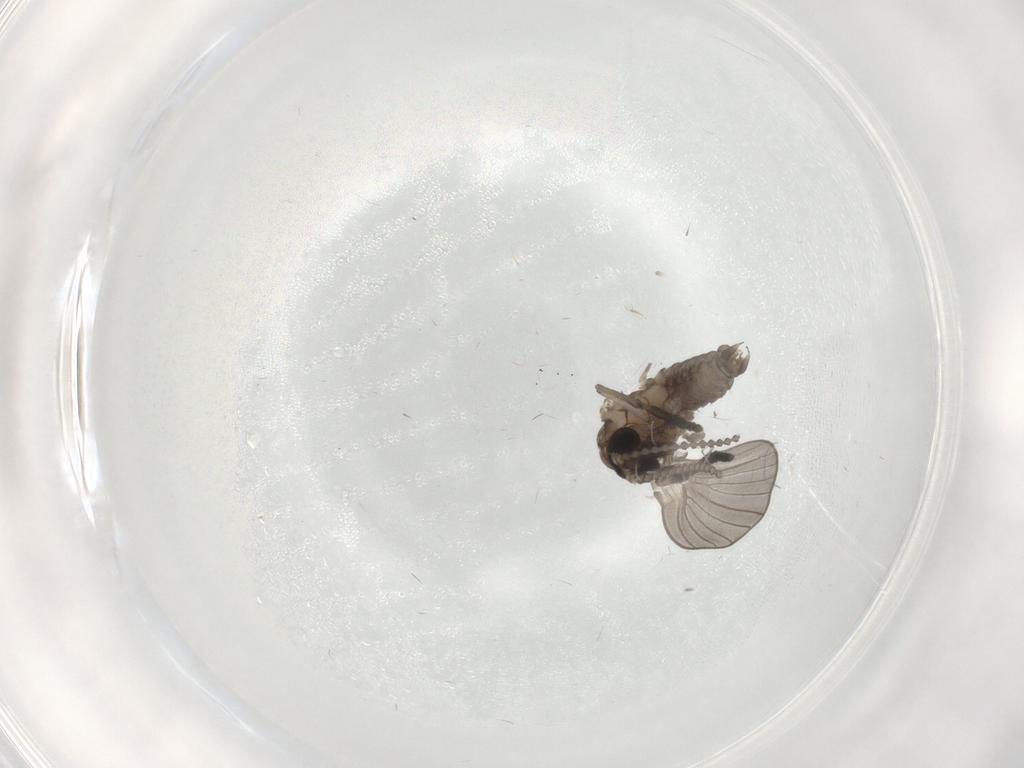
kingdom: Animalia
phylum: Arthropoda
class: Insecta
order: Diptera
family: Psychodidae
